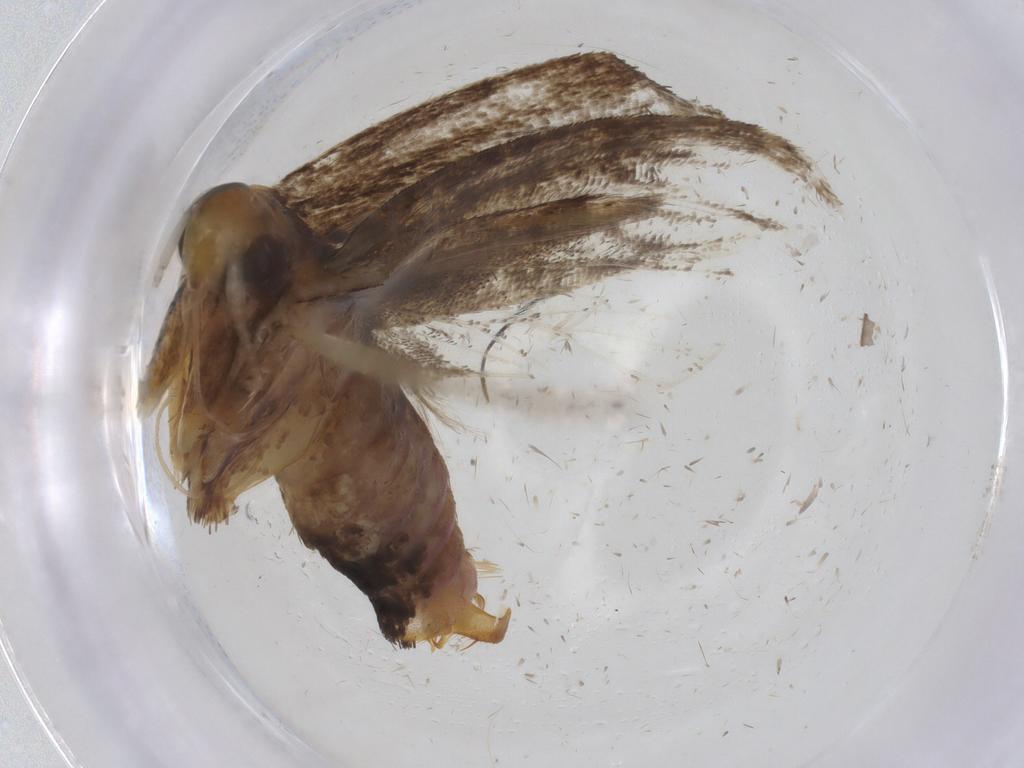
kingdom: Animalia
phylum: Arthropoda
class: Insecta
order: Lepidoptera
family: Lecithoceridae
